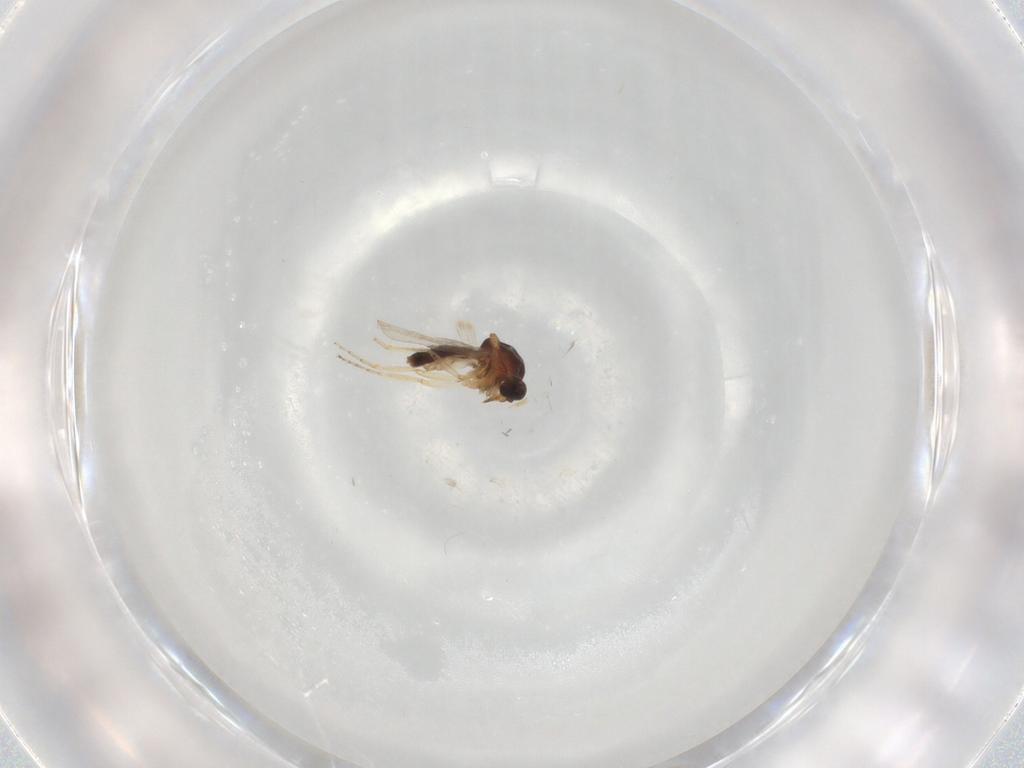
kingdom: Animalia
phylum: Arthropoda
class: Insecta
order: Diptera
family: Ceratopogonidae
